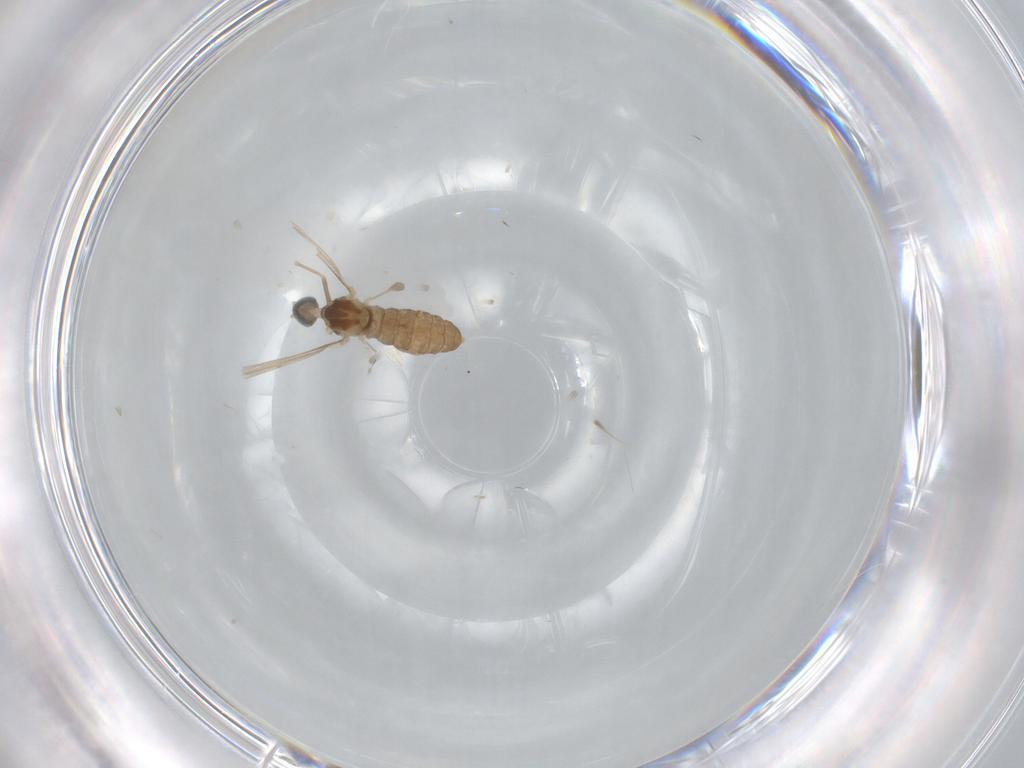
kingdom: Animalia
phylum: Arthropoda
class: Insecta
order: Diptera
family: Cecidomyiidae
